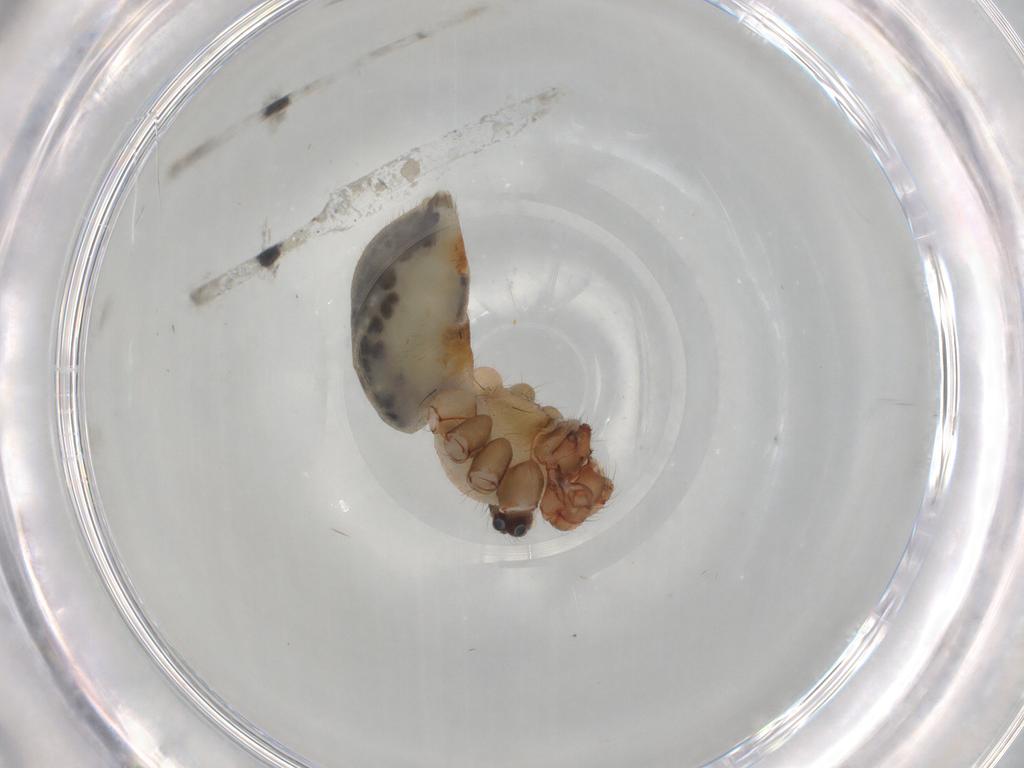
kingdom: Animalia
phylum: Arthropoda
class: Arachnida
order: Araneae
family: Pholcidae
